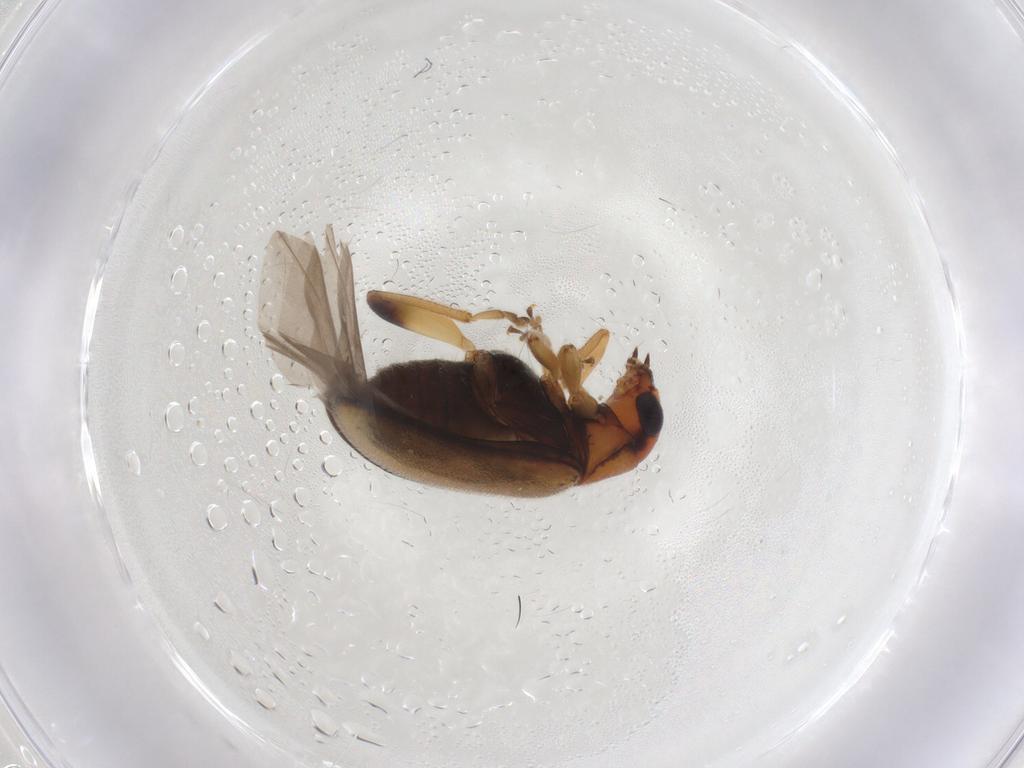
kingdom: Animalia
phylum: Arthropoda
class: Insecta
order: Coleoptera
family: Chrysomelidae
